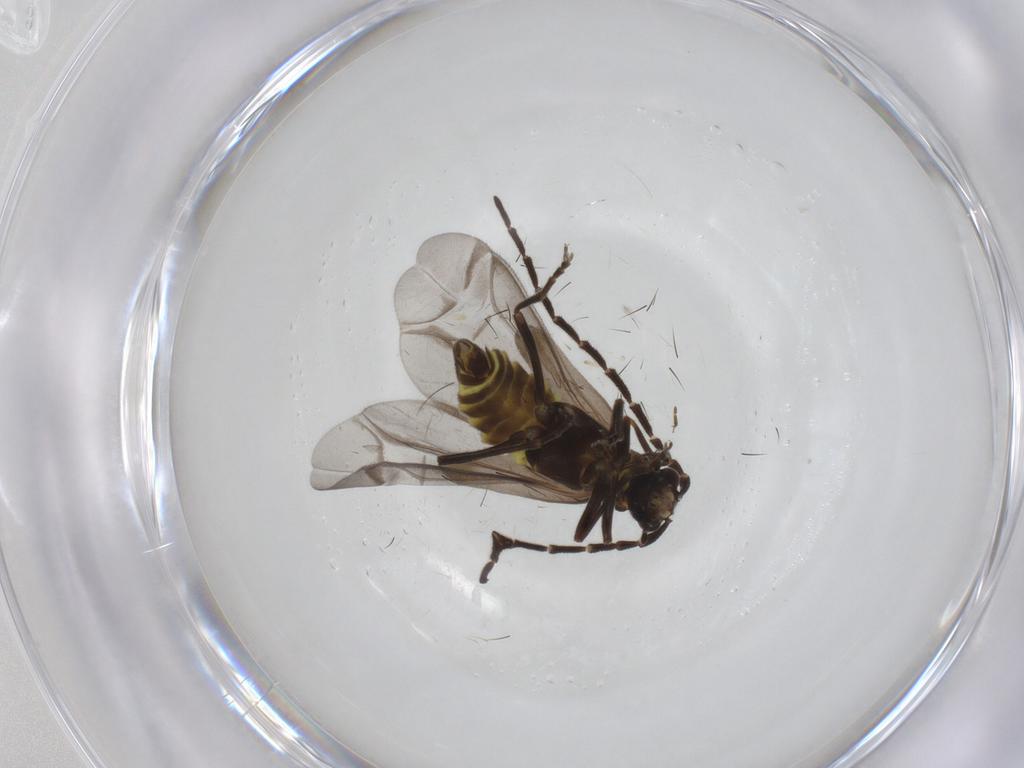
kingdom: Animalia
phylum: Arthropoda
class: Insecta
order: Coleoptera
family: Cantharidae
